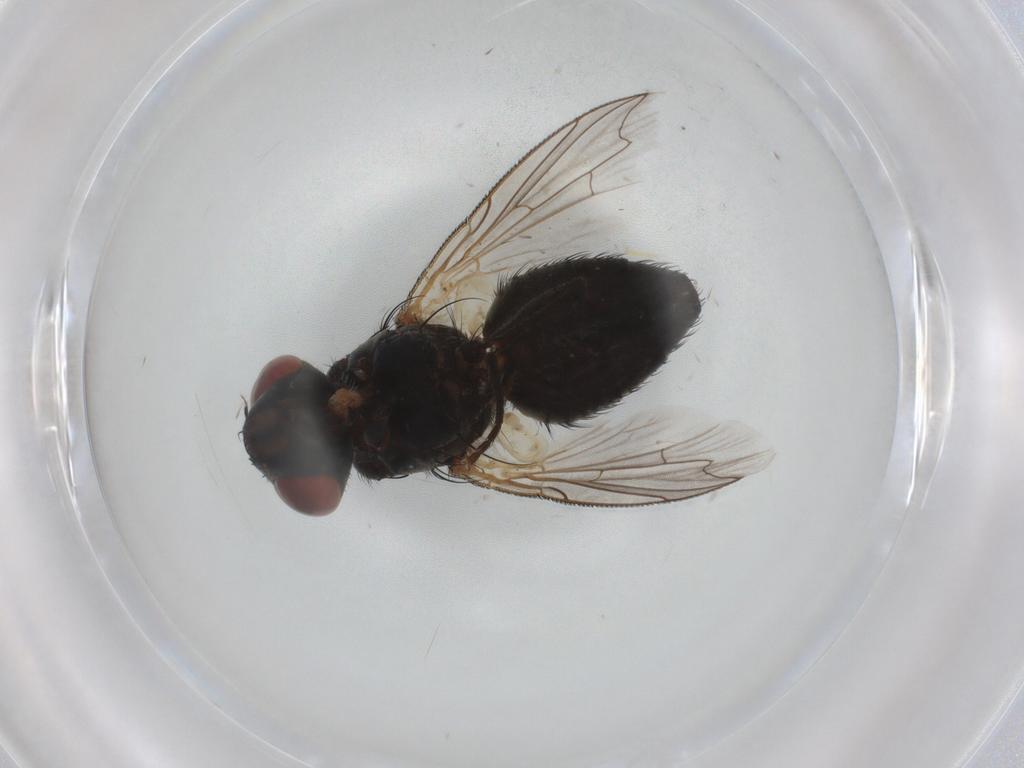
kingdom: Animalia
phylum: Arthropoda
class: Insecta
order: Diptera
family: Sarcophagidae
